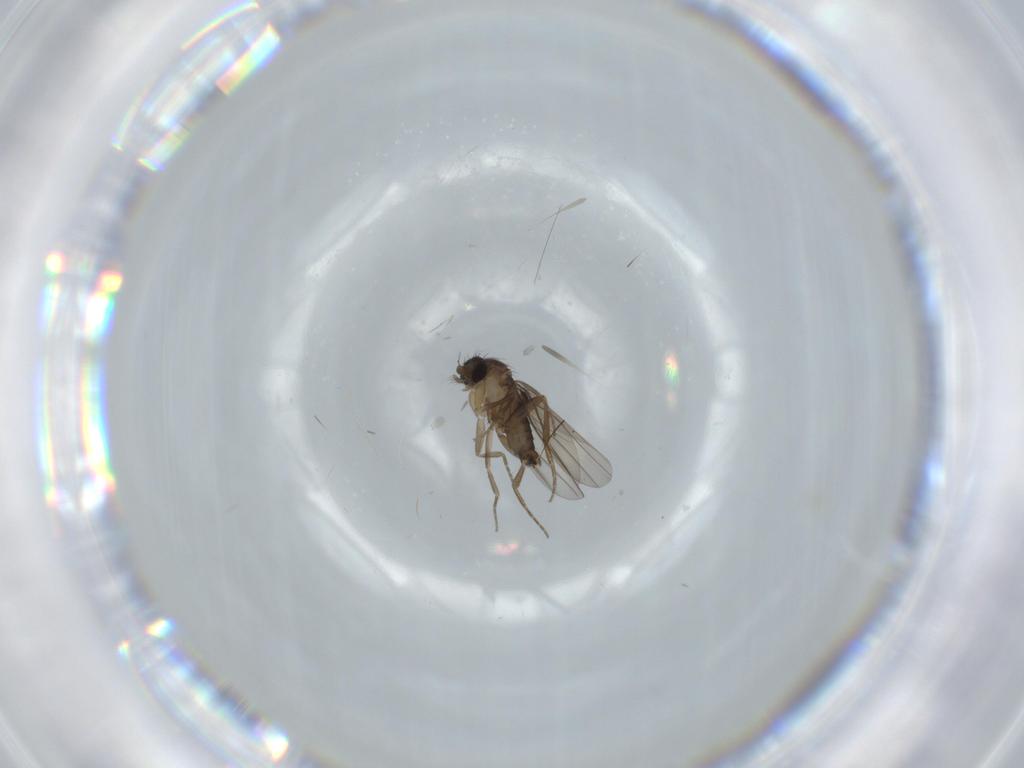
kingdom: Animalia
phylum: Arthropoda
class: Insecta
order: Diptera
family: Phoridae
